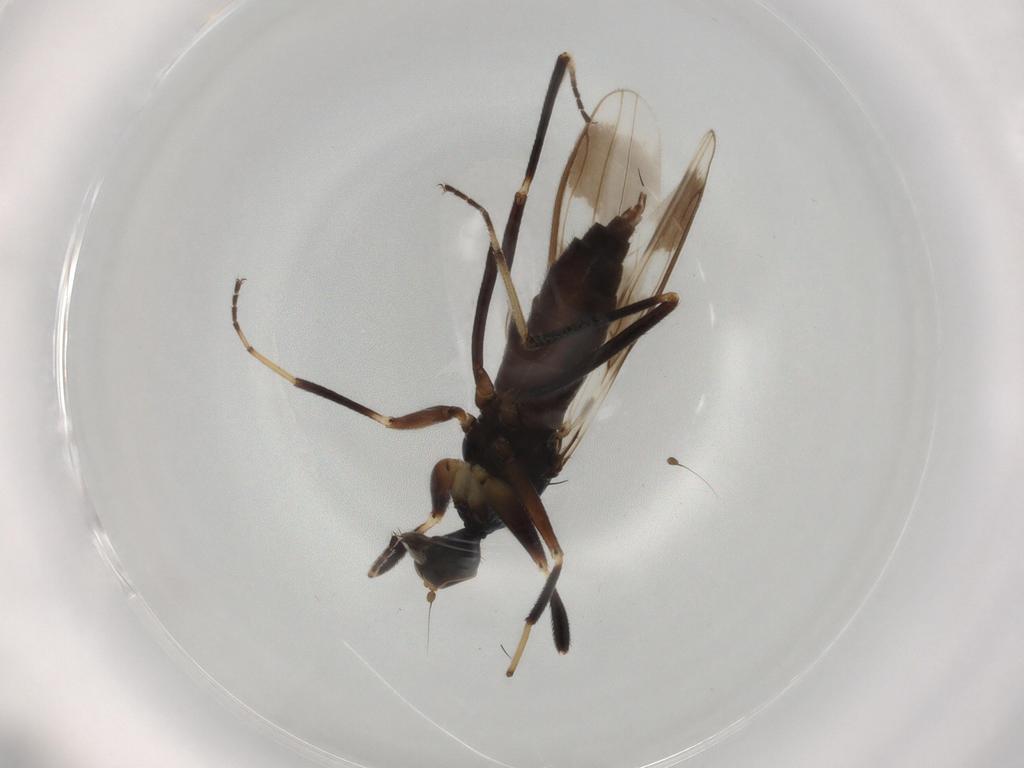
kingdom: Animalia
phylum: Arthropoda
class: Insecta
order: Diptera
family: Hybotidae
